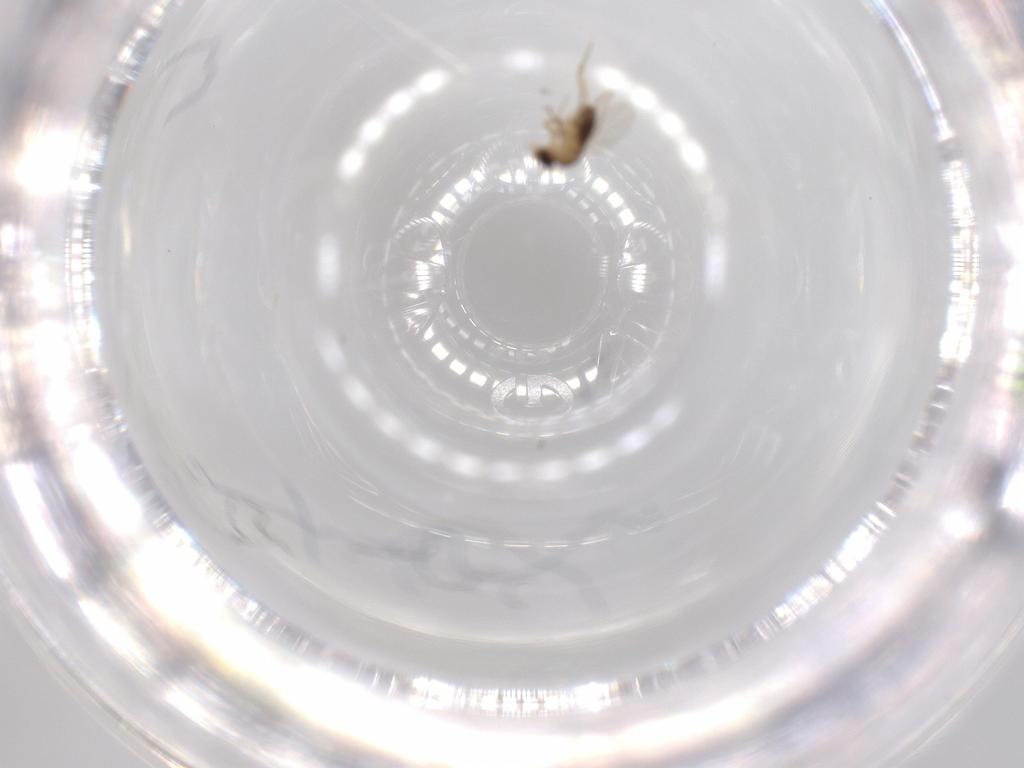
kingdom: Animalia
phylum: Arthropoda
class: Insecta
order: Diptera
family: Phoridae
